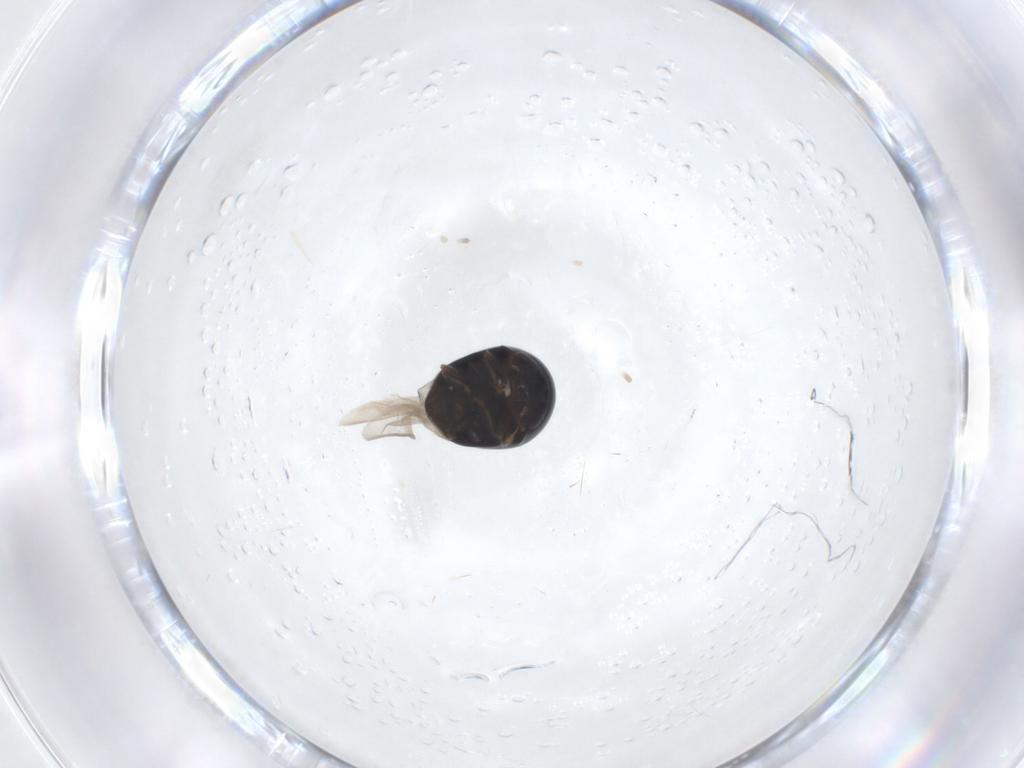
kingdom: Animalia
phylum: Arthropoda
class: Insecta
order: Coleoptera
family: Cybocephalidae
